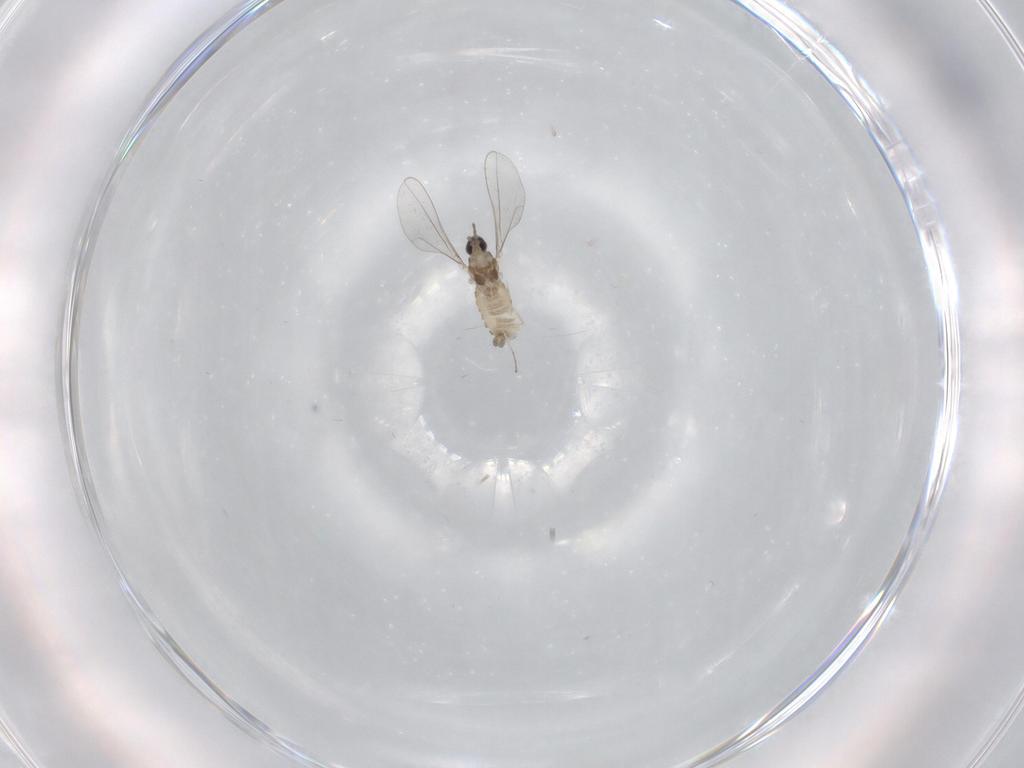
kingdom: Animalia
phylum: Arthropoda
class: Insecta
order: Diptera
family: Cecidomyiidae
